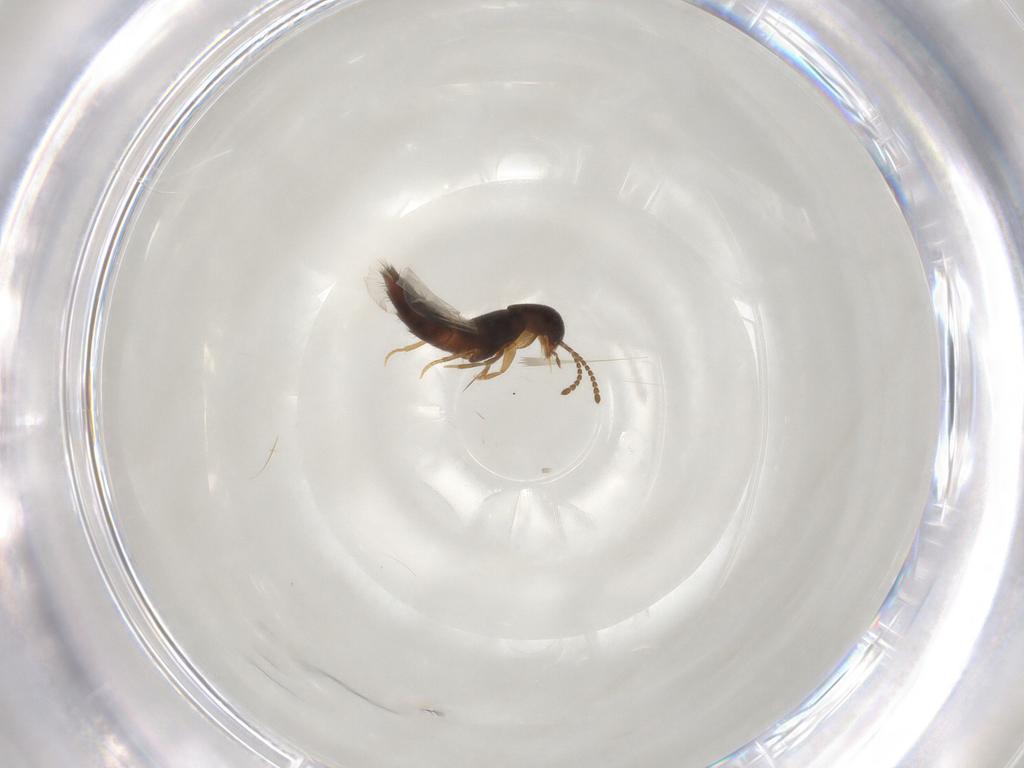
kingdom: Animalia
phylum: Arthropoda
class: Insecta
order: Coleoptera
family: Staphylinidae
